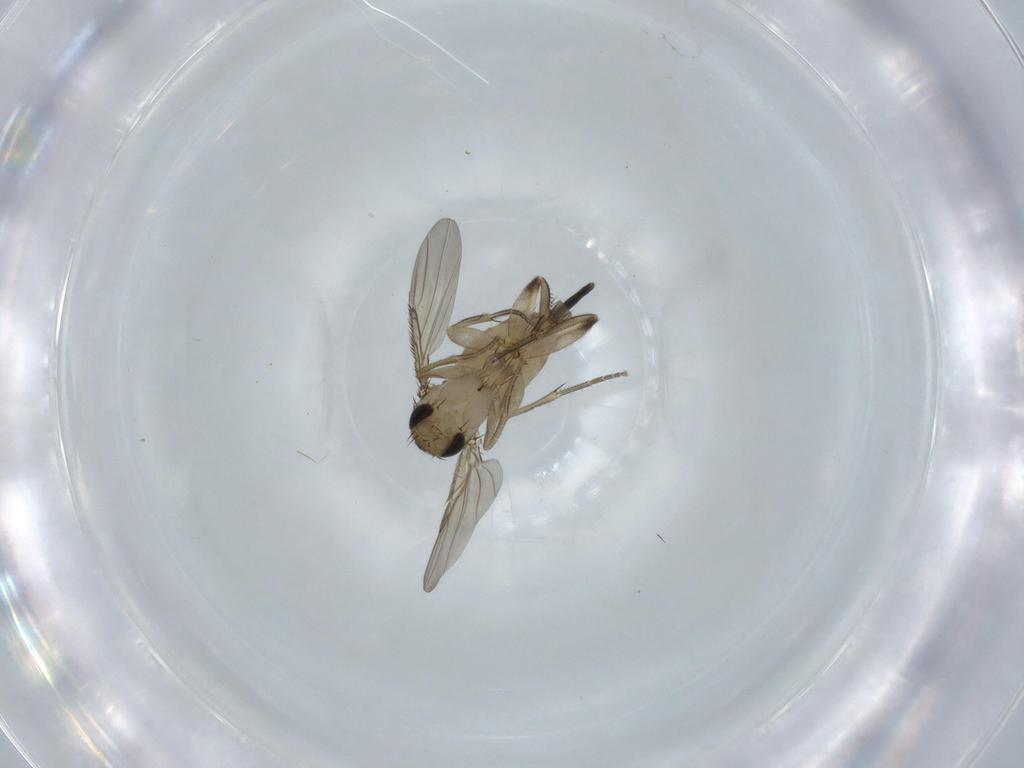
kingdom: Animalia
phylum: Arthropoda
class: Insecta
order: Diptera
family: Phoridae
